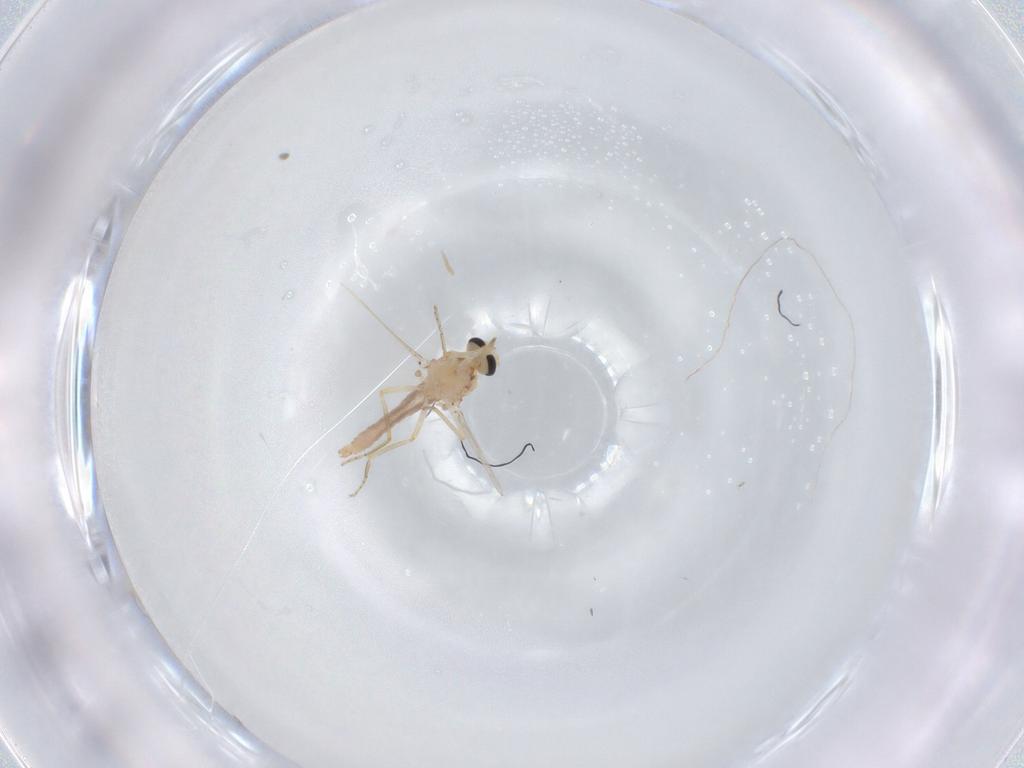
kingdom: Animalia
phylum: Arthropoda
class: Insecta
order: Diptera
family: Ceratopogonidae
